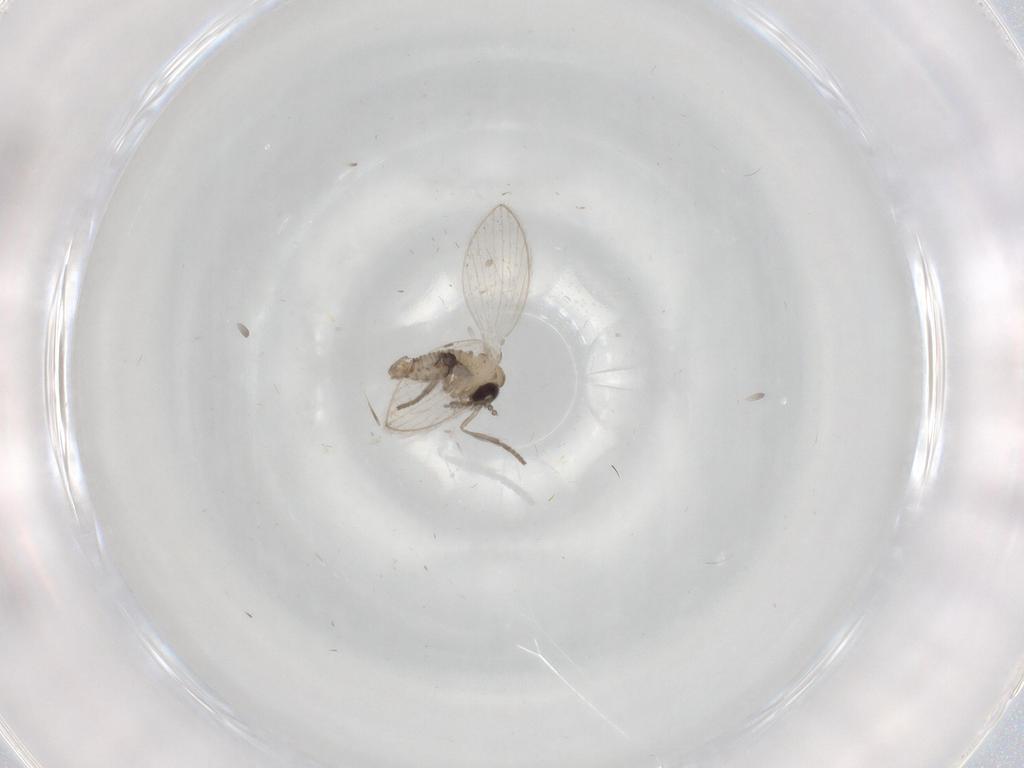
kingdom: Animalia
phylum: Arthropoda
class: Insecta
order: Diptera
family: Psychodidae
